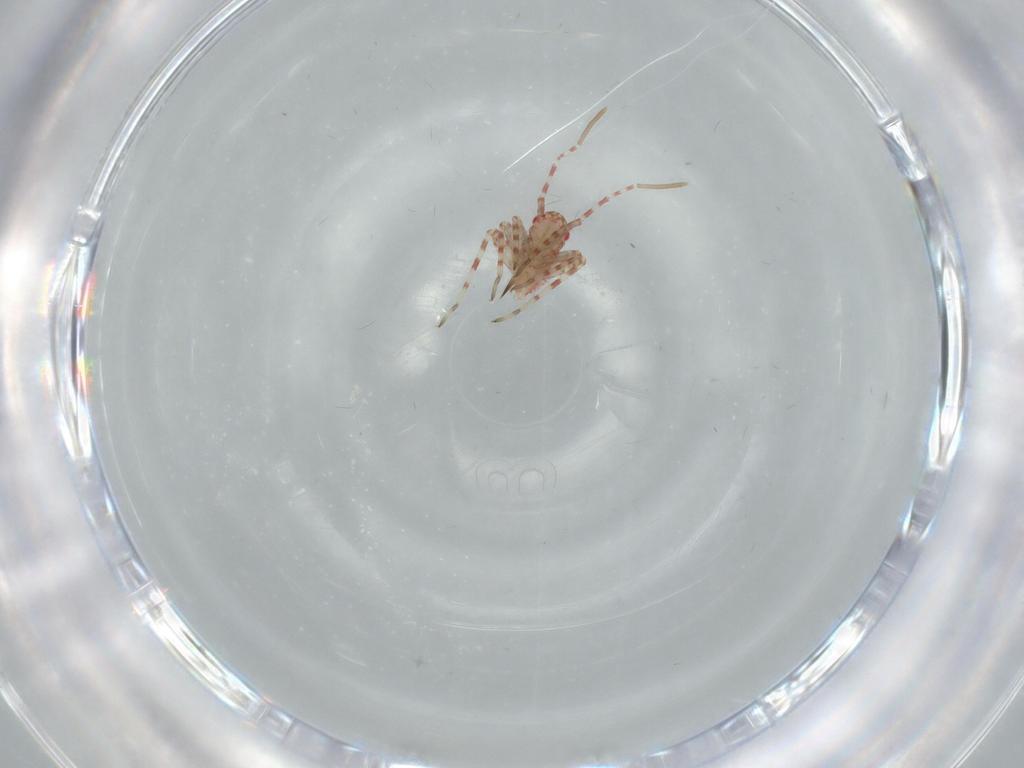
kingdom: Animalia
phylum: Arthropoda
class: Insecta
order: Hemiptera
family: Miridae
